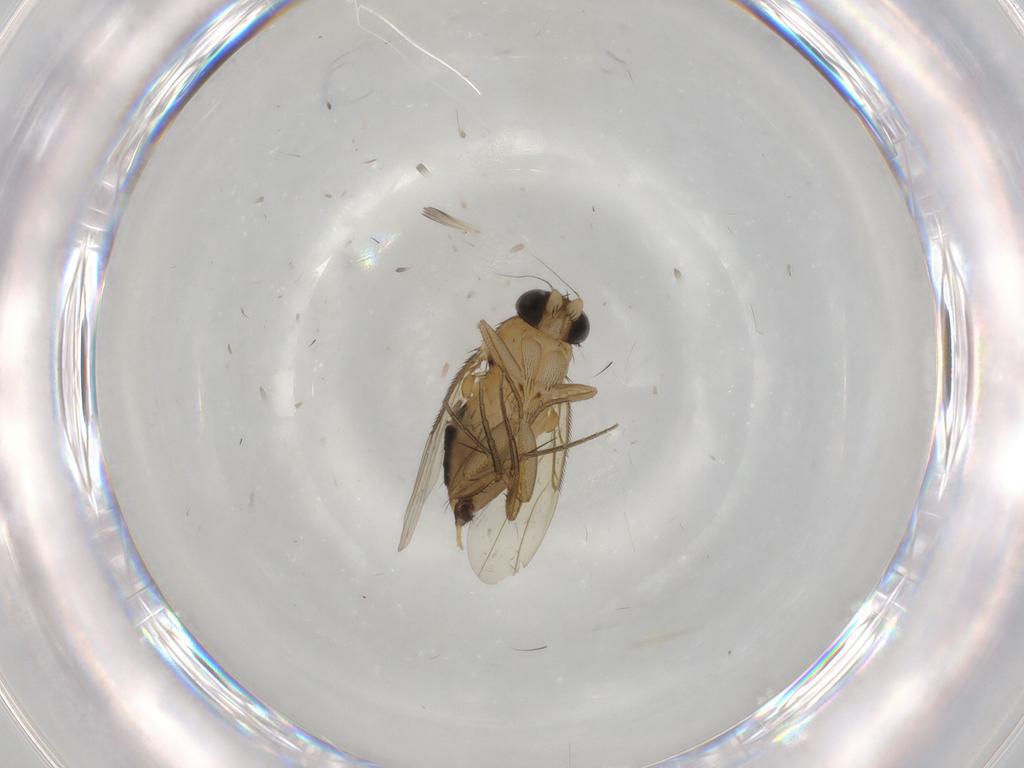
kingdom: Animalia
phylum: Arthropoda
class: Insecta
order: Diptera
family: Phoridae
